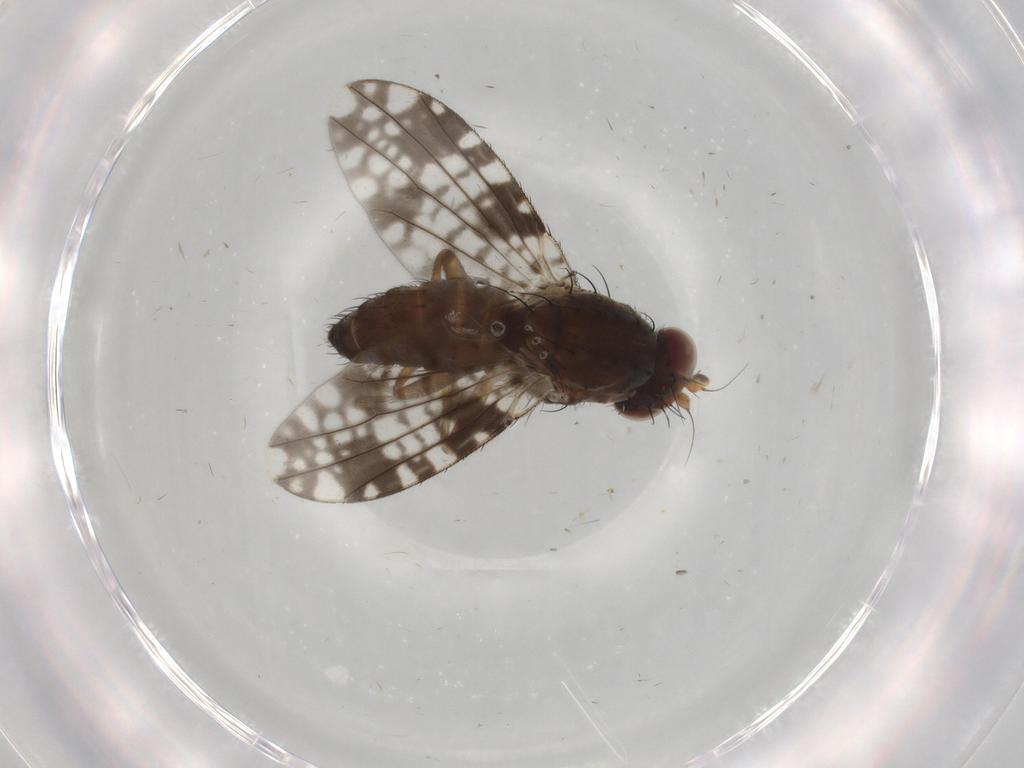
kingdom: Animalia
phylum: Arthropoda
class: Insecta
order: Diptera
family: Tephritidae
